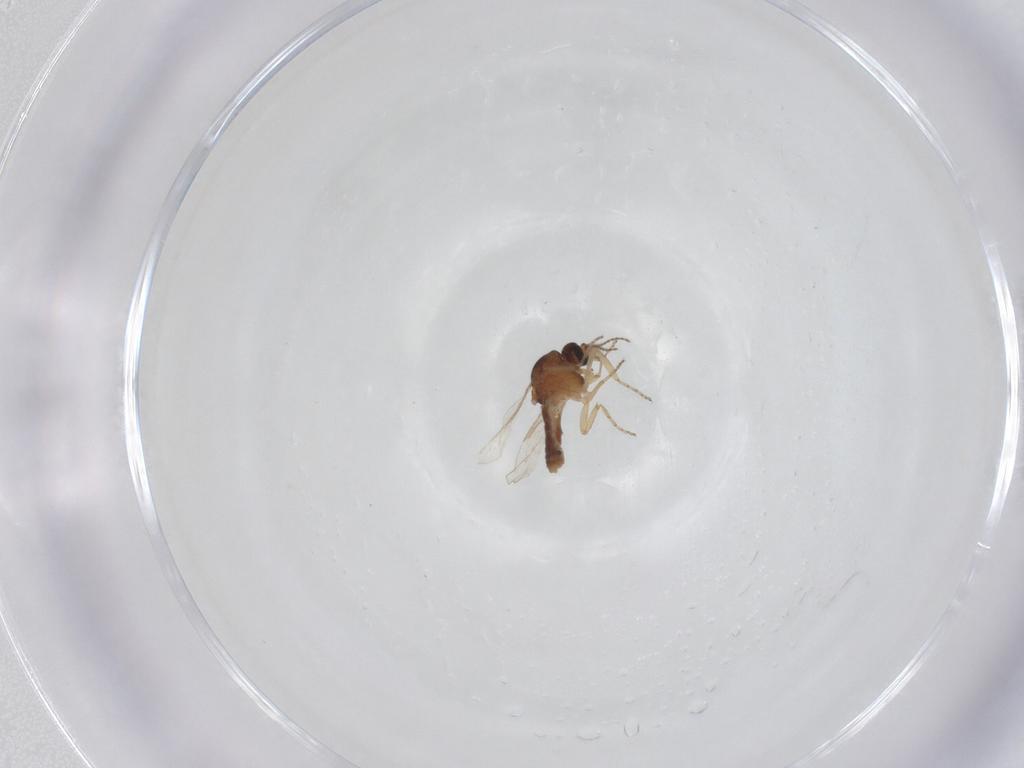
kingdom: Animalia
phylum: Arthropoda
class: Insecta
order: Diptera
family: Ceratopogonidae
